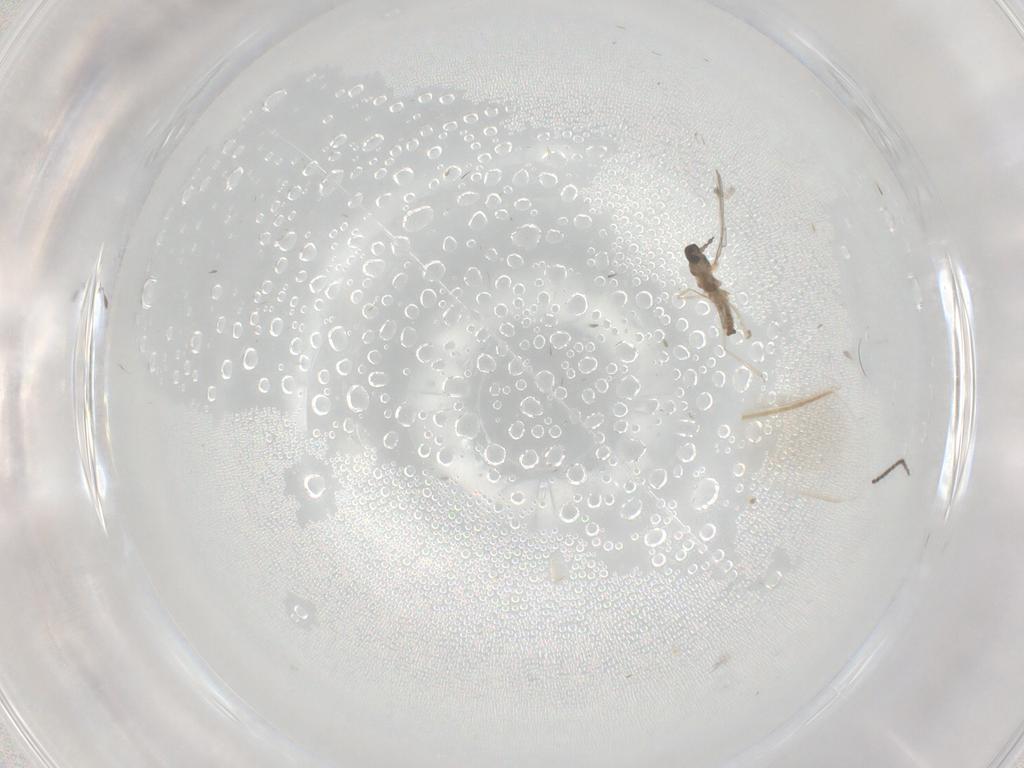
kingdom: Animalia
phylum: Arthropoda
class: Insecta
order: Diptera
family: Sciaridae
